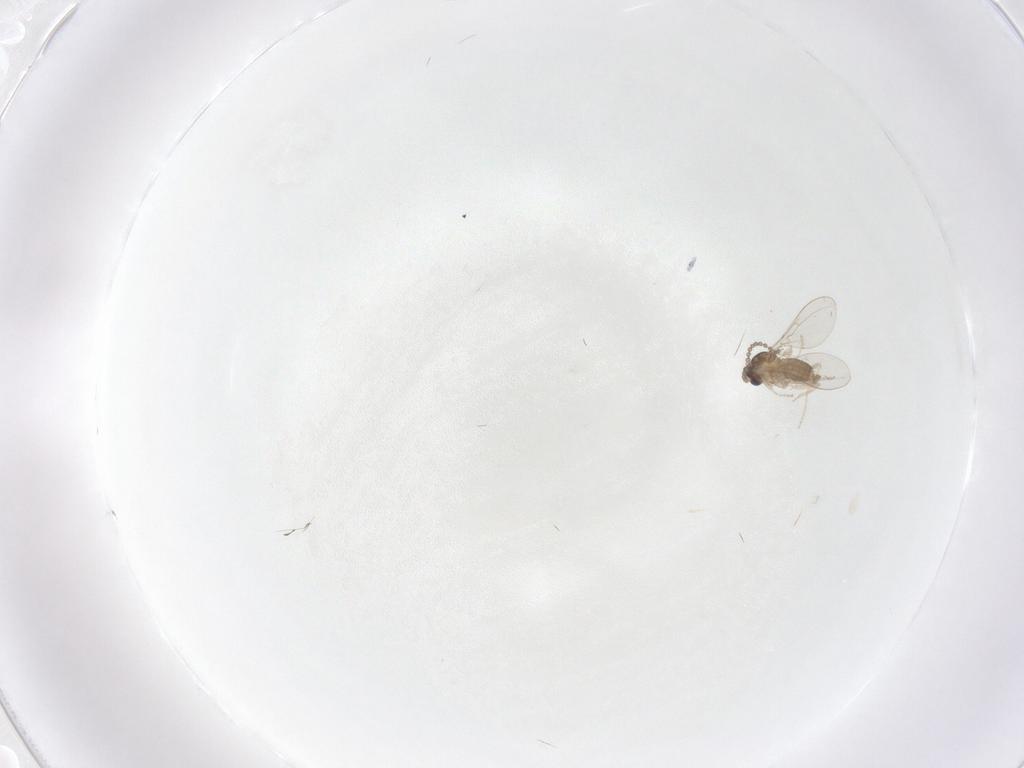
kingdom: Animalia
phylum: Arthropoda
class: Insecta
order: Diptera
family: Cecidomyiidae
